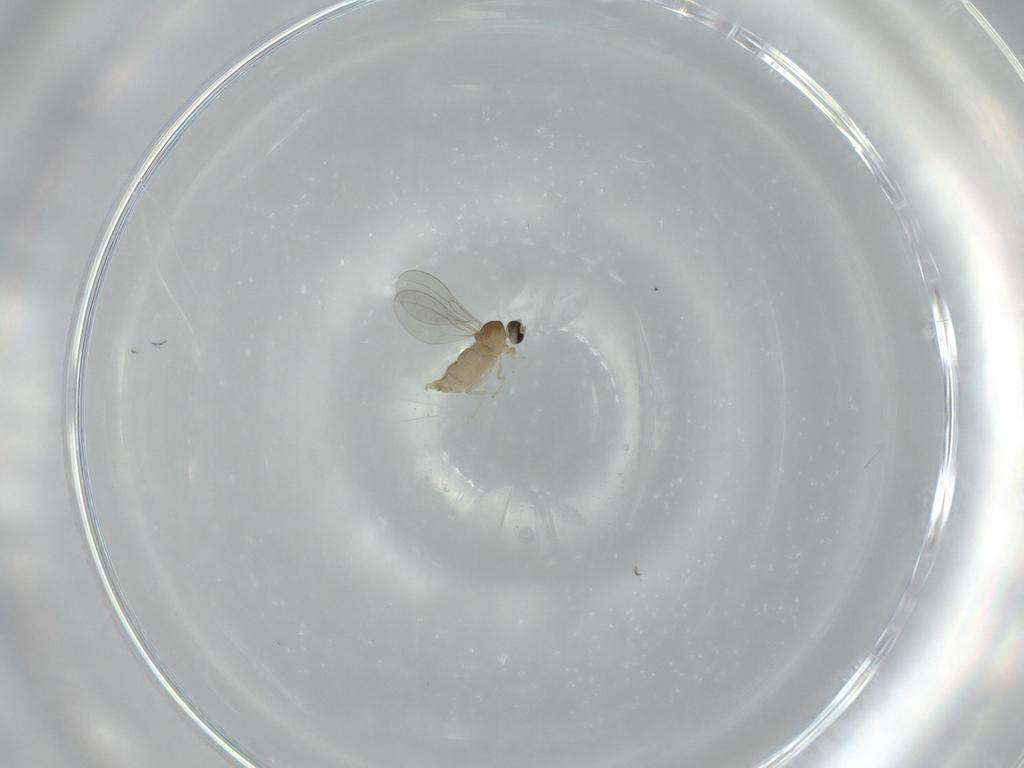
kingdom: Animalia
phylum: Arthropoda
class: Insecta
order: Diptera
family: Cecidomyiidae
